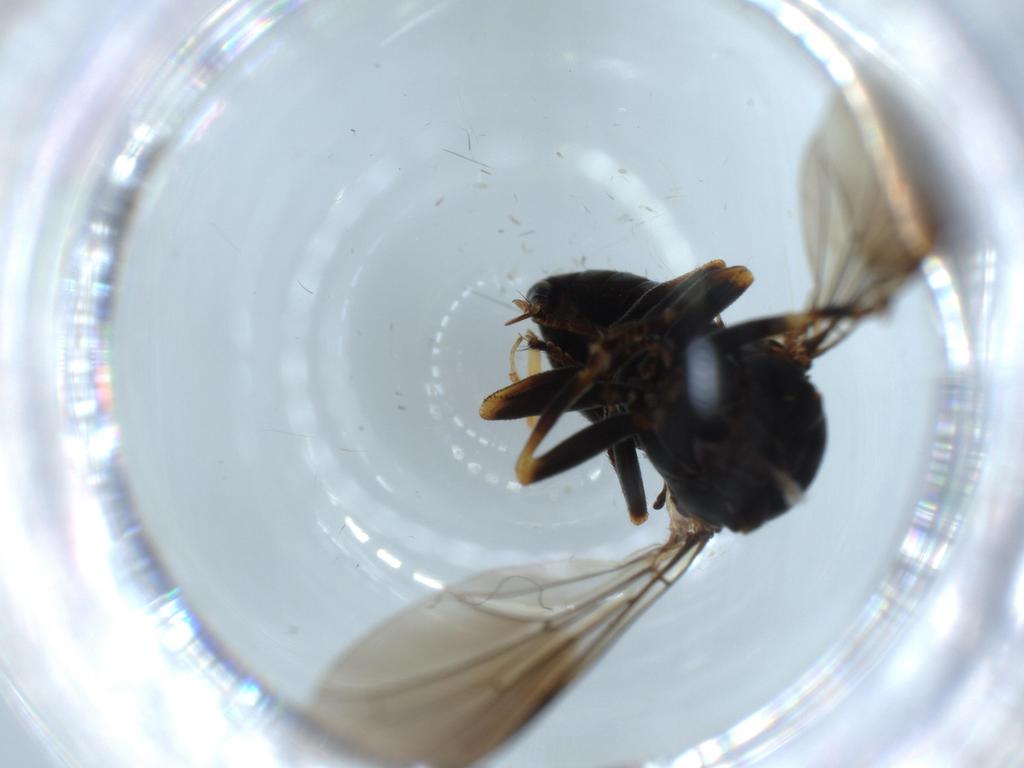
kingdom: Animalia
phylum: Arthropoda
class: Insecta
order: Diptera
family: Pipunculidae
